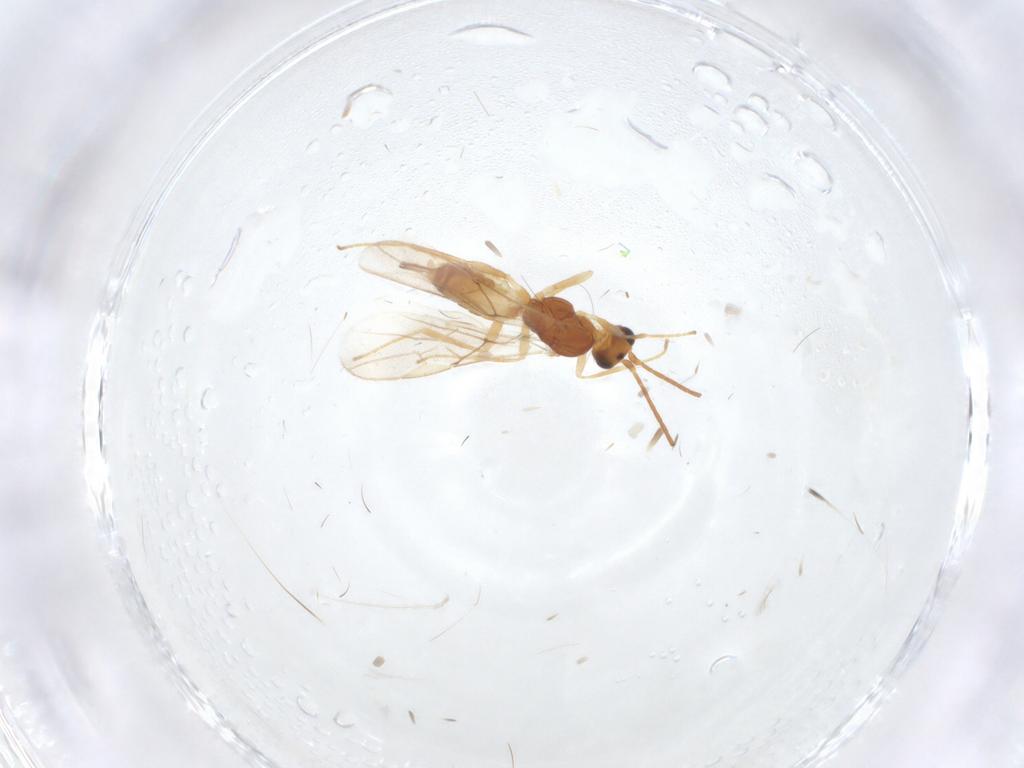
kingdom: Animalia
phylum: Arthropoda
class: Insecta
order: Hymenoptera
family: Braconidae
